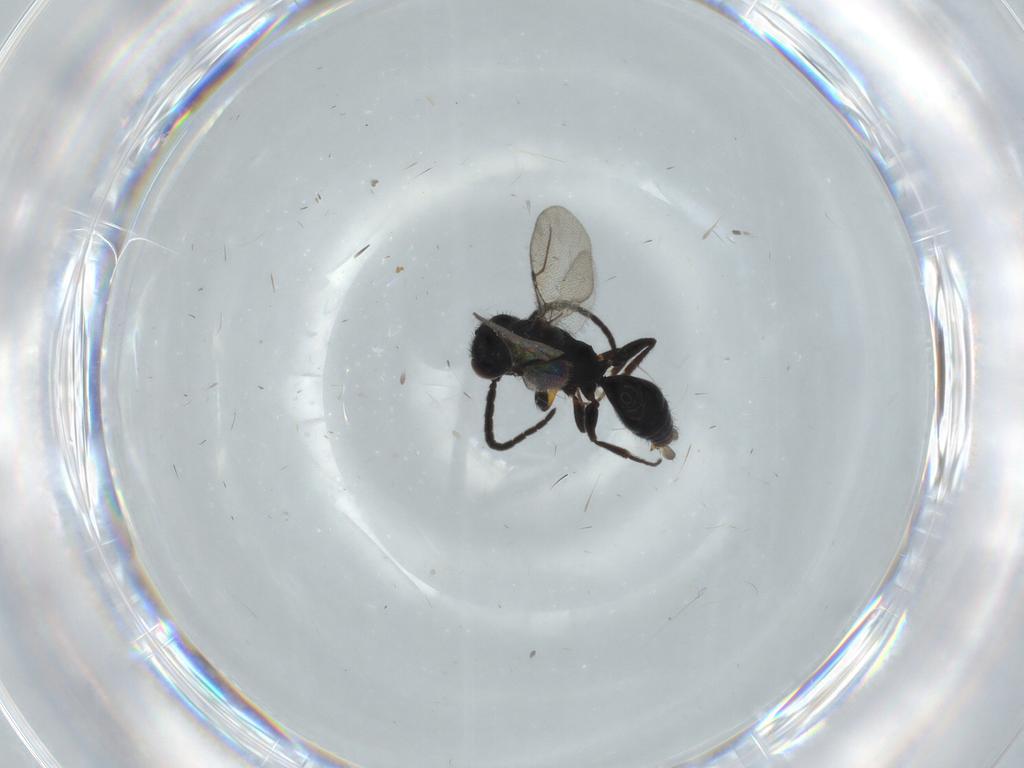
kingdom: Animalia
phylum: Arthropoda
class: Insecta
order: Hymenoptera
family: Bethylidae
